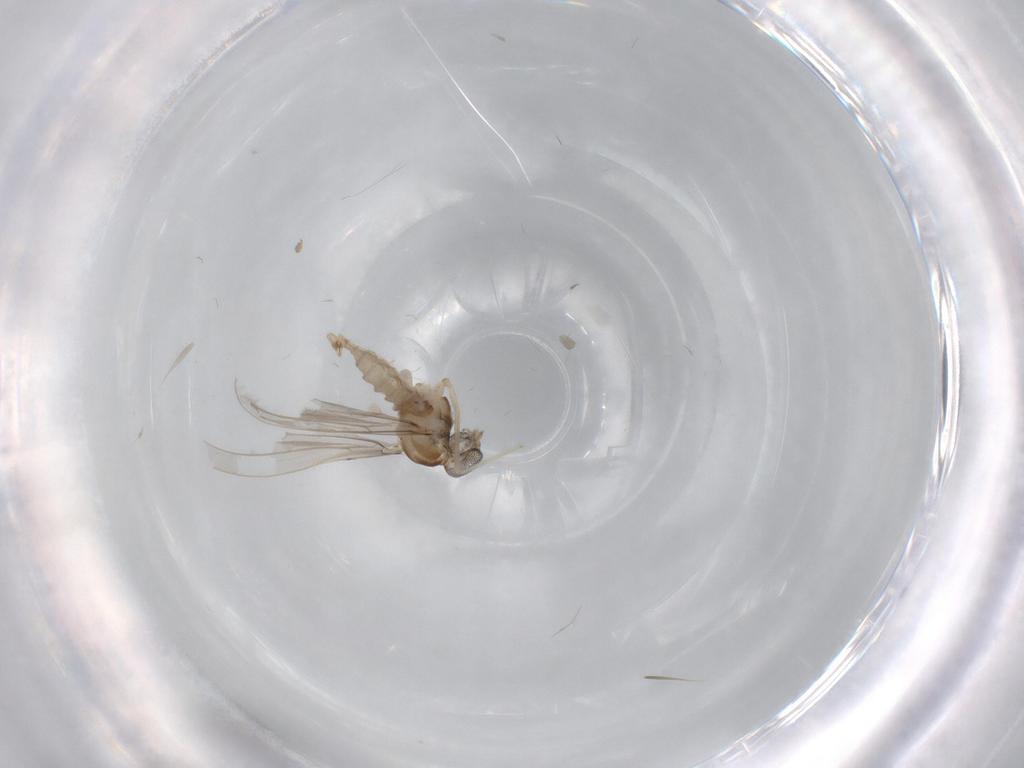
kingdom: Animalia
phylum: Arthropoda
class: Insecta
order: Diptera
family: Cecidomyiidae
